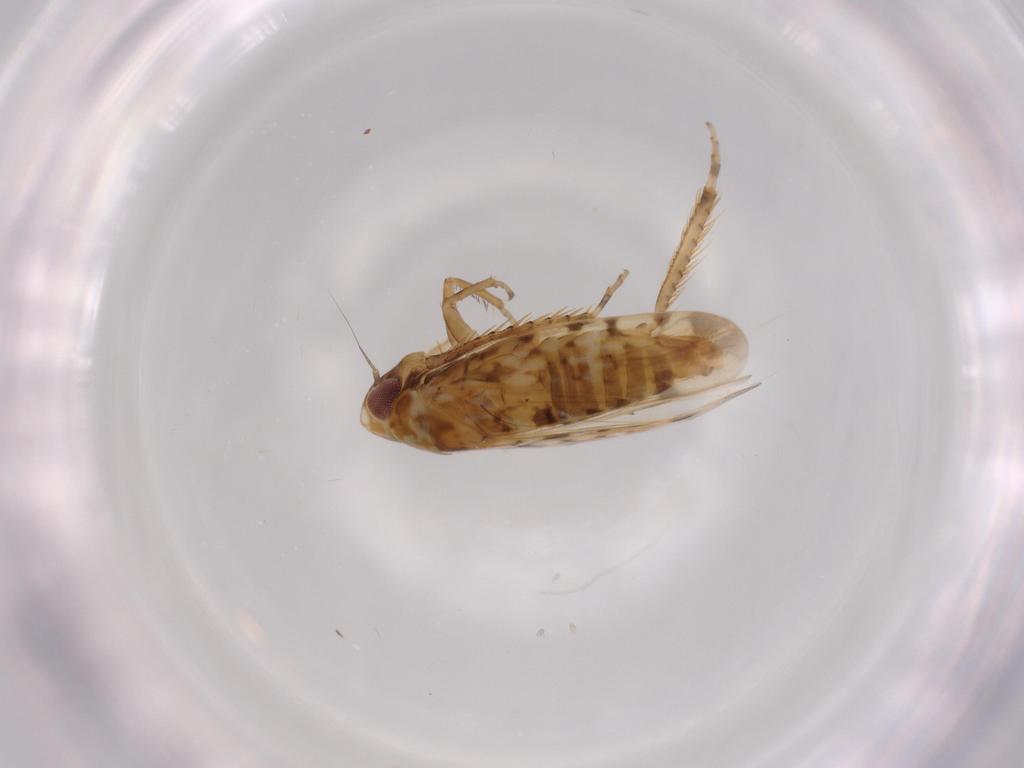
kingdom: Animalia
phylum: Arthropoda
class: Insecta
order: Hemiptera
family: Cicadellidae
